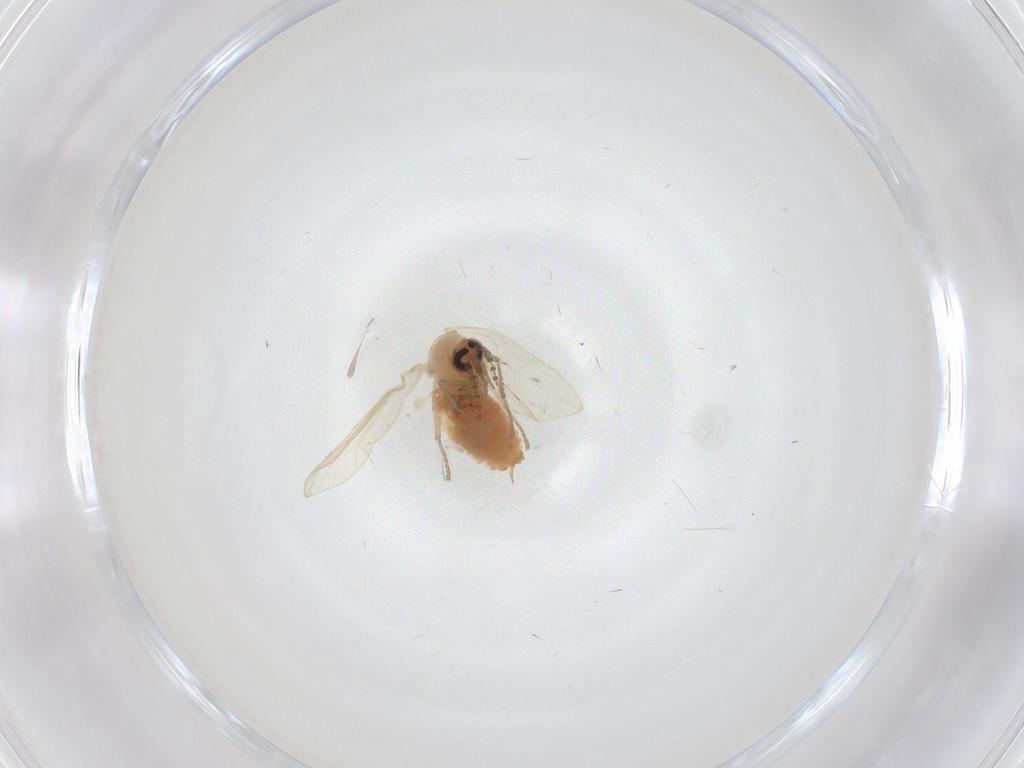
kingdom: Animalia
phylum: Arthropoda
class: Insecta
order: Diptera
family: Psychodidae
